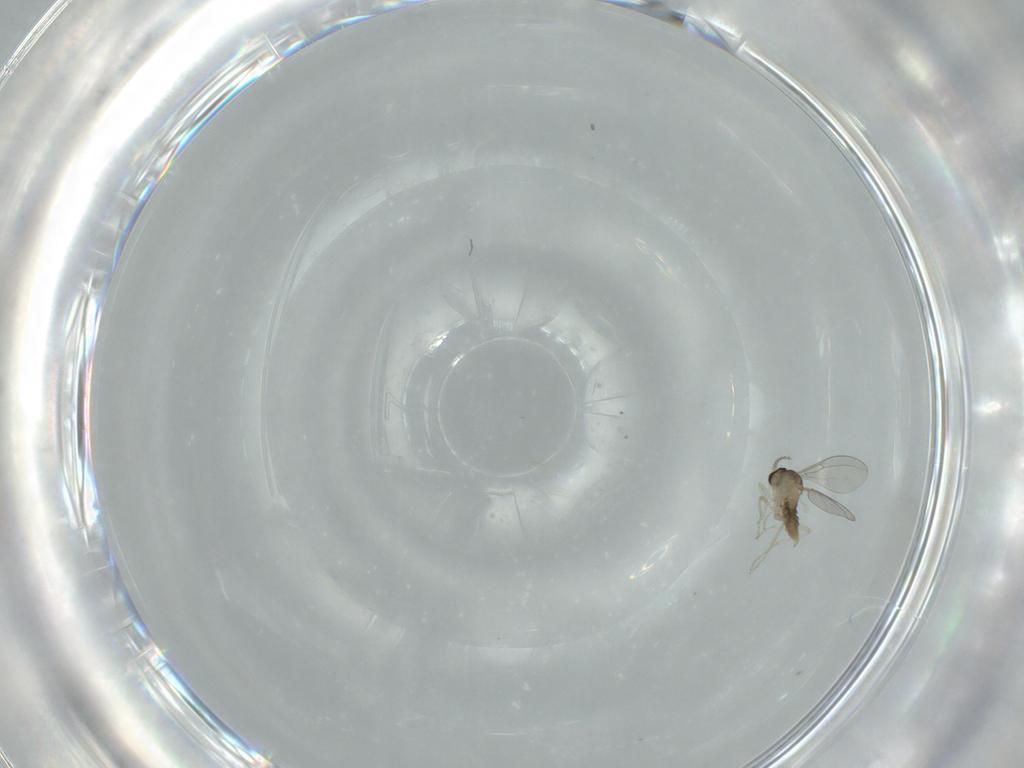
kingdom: Animalia
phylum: Arthropoda
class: Insecta
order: Diptera
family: Cecidomyiidae
